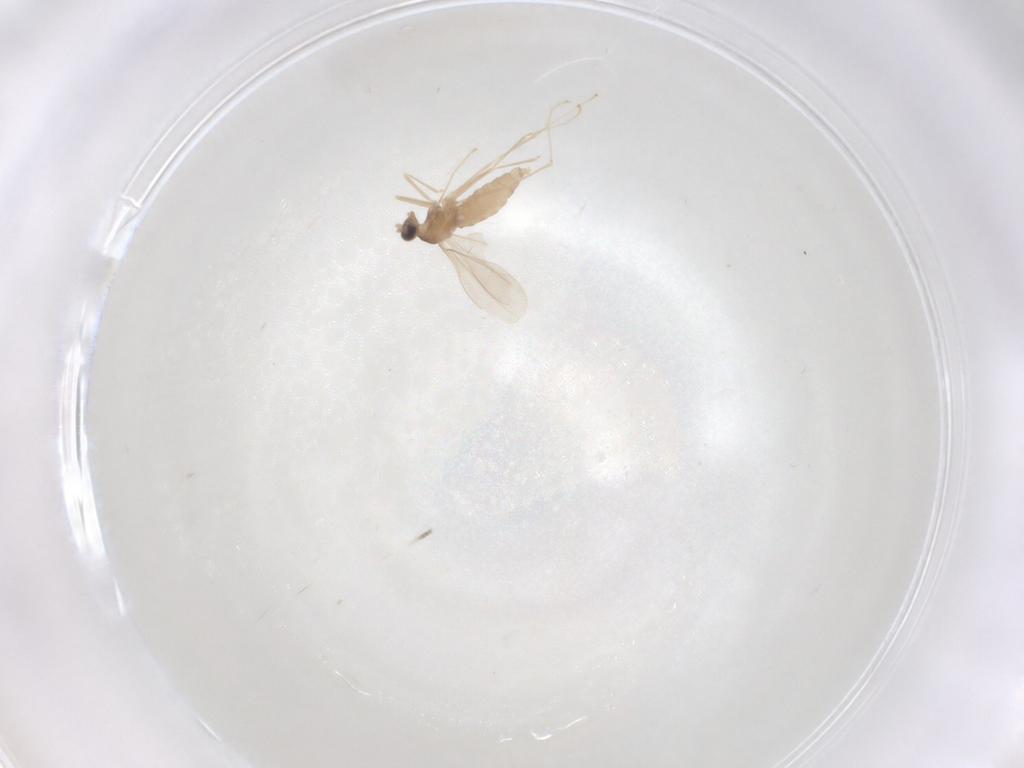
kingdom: Animalia
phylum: Arthropoda
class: Insecta
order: Diptera
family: Cecidomyiidae
